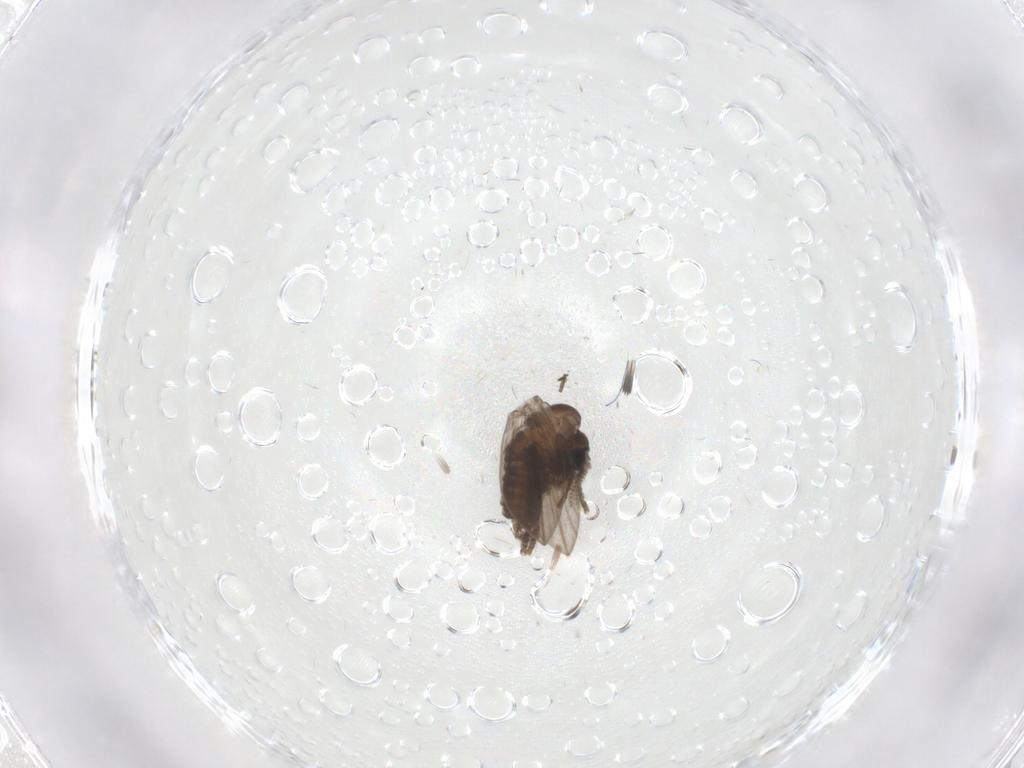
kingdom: Animalia
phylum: Arthropoda
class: Insecta
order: Diptera
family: Psychodidae
